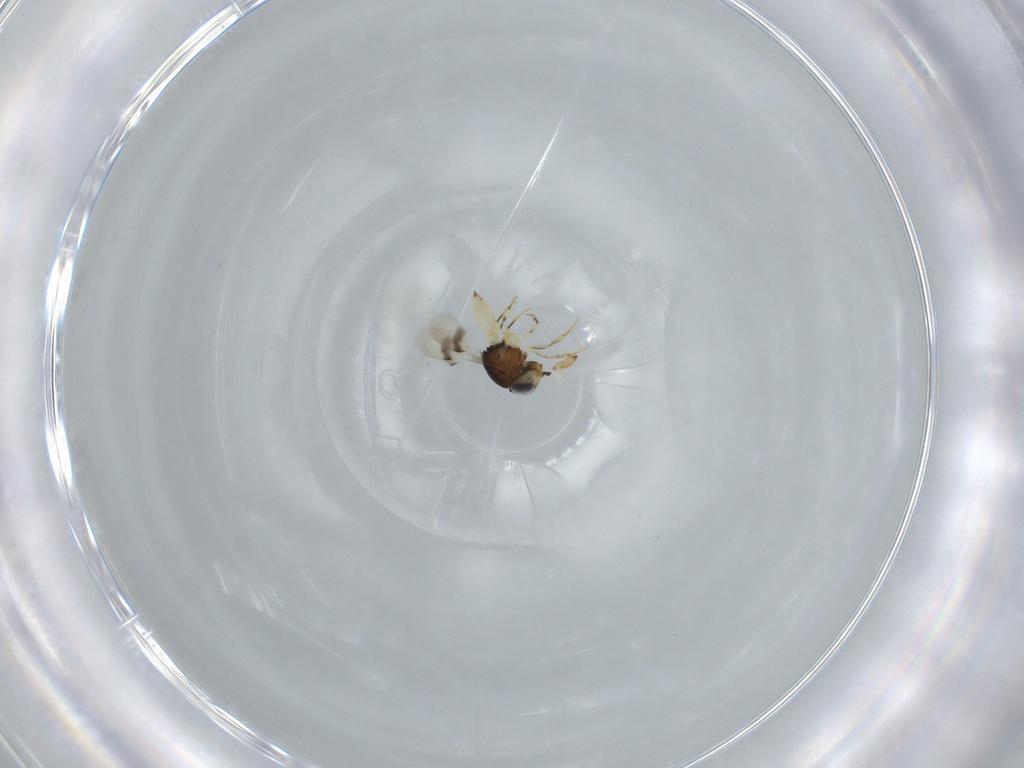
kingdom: Animalia
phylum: Arthropoda
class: Insecta
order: Hymenoptera
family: Scelionidae
